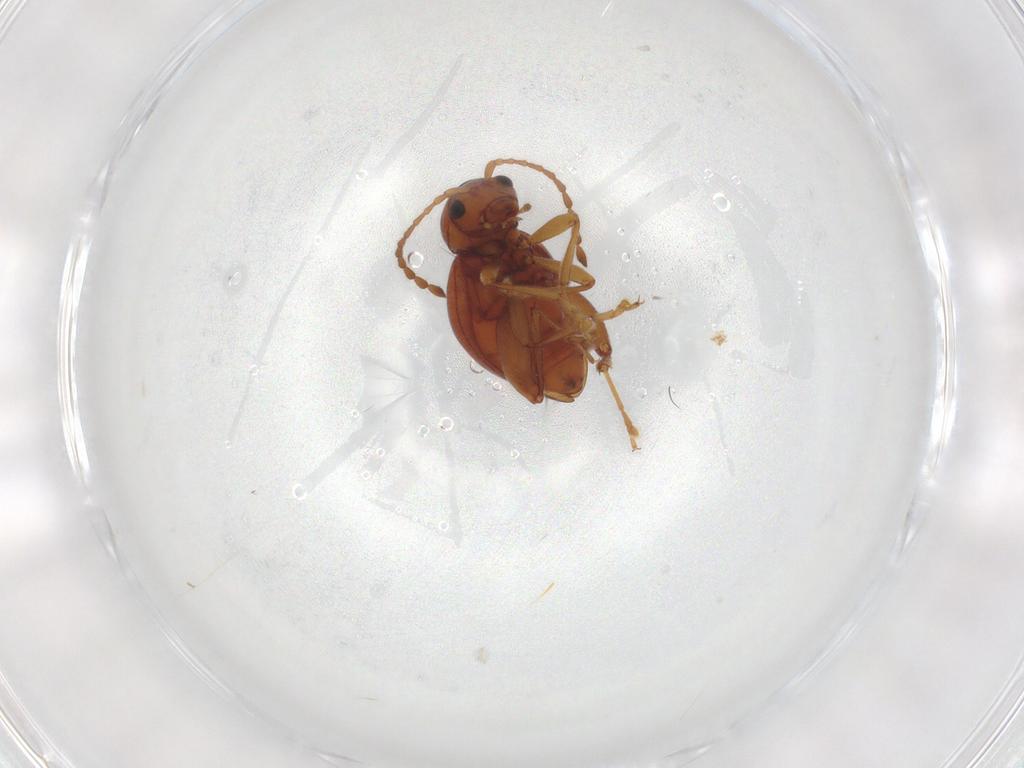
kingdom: Animalia
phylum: Arthropoda
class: Insecta
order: Coleoptera
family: Chrysomelidae
